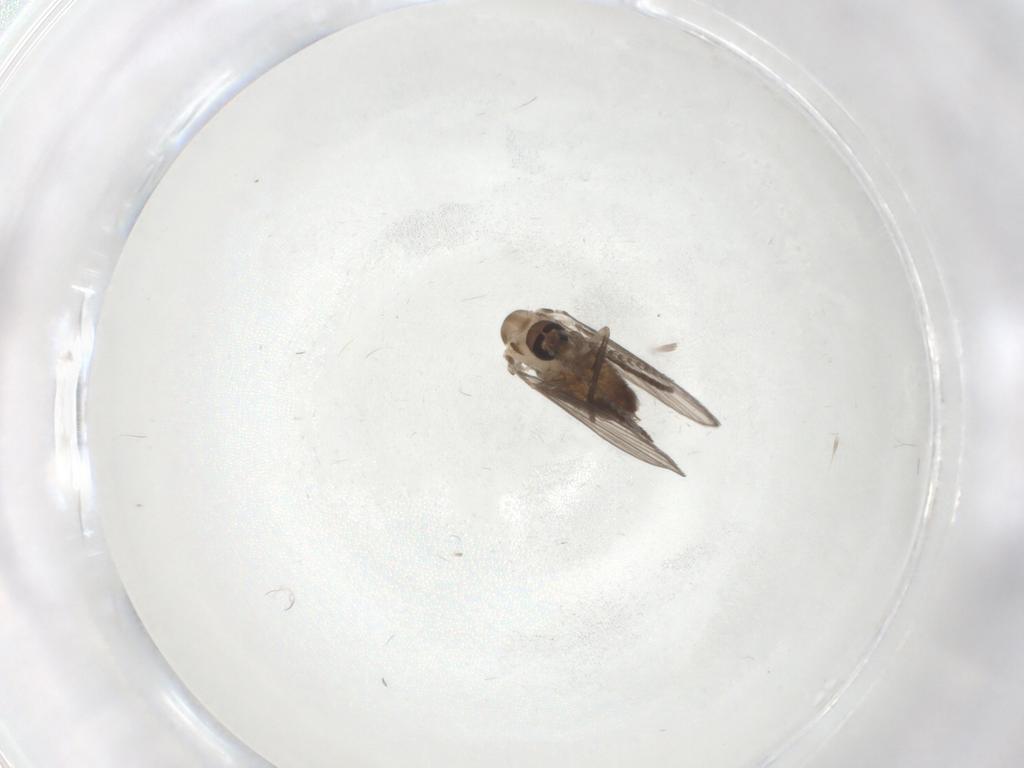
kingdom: Animalia
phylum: Arthropoda
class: Insecta
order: Diptera
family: Psychodidae
